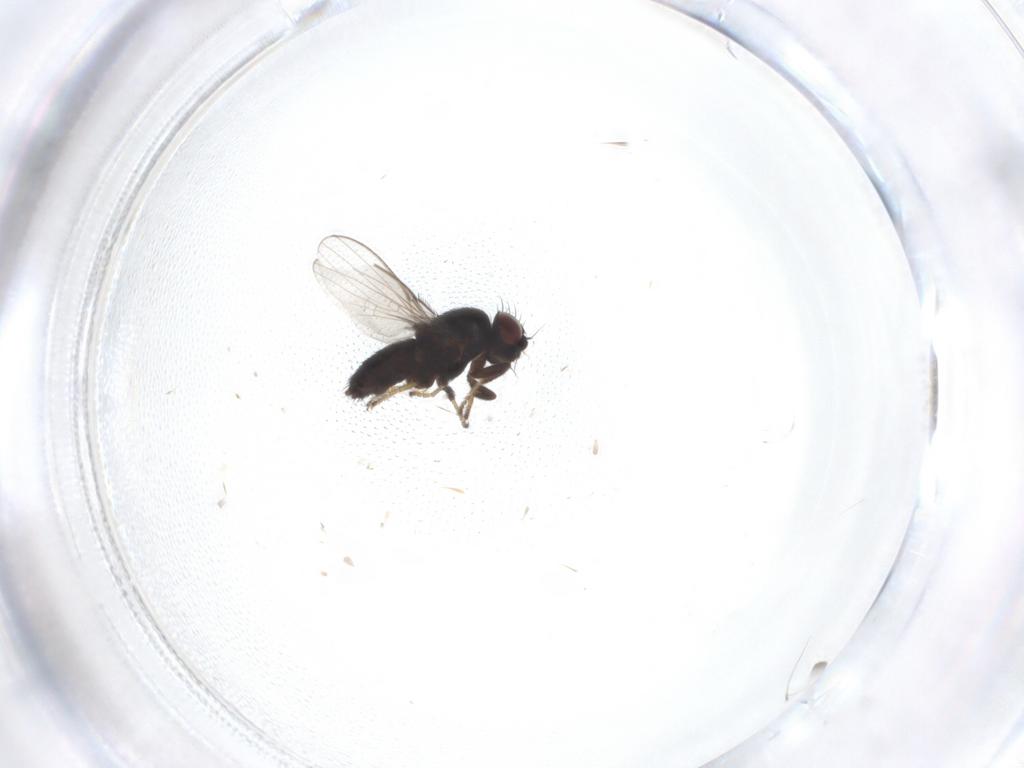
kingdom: Animalia
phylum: Arthropoda
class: Insecta
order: Diptera
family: Milichiidae
